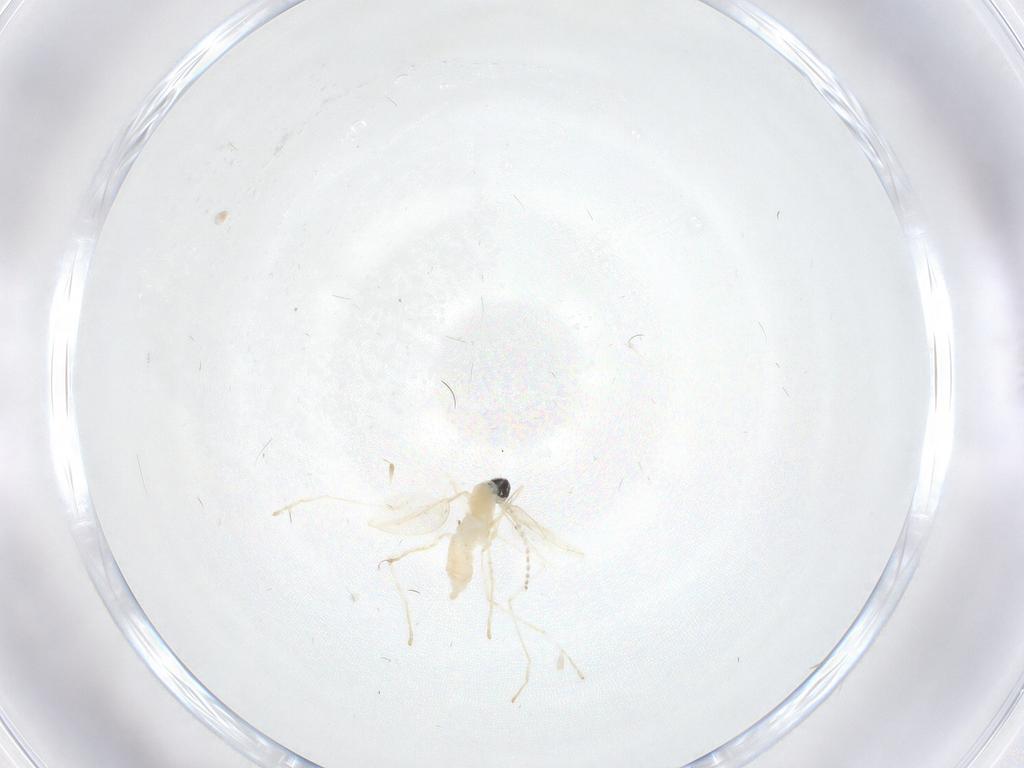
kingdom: Animalia
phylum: Arthropoda
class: Insecta
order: Diptera
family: Cecidomyiidae
